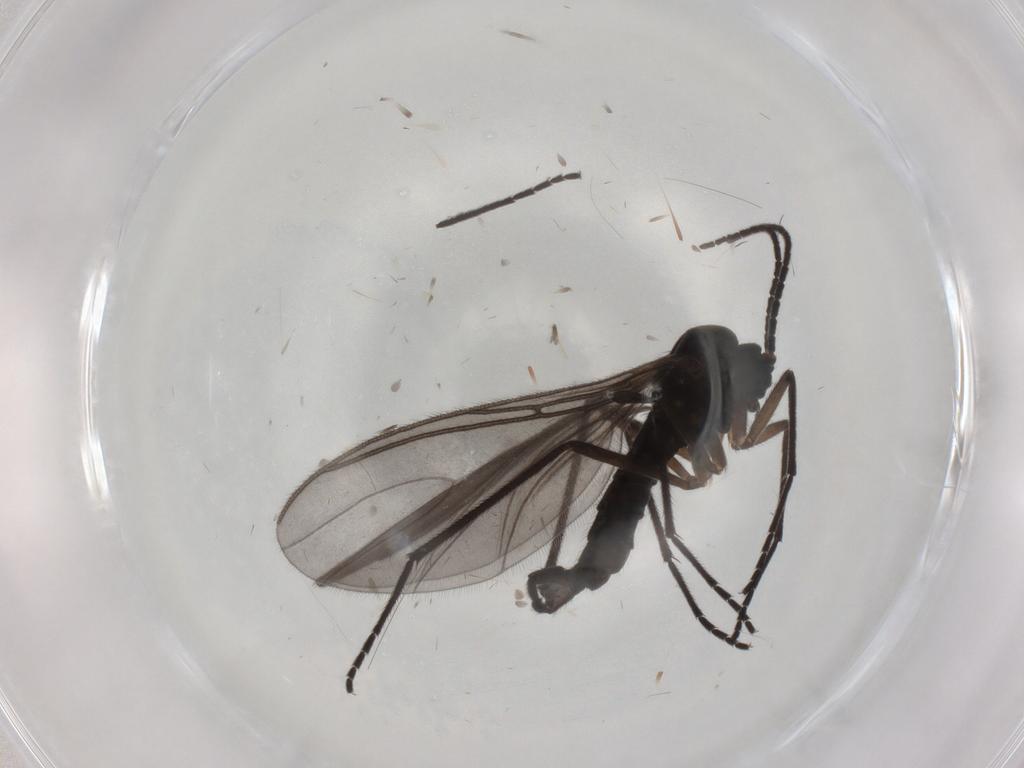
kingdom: Animalia
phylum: Arthropoda
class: Insecta
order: Diptera
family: Sciaridae
